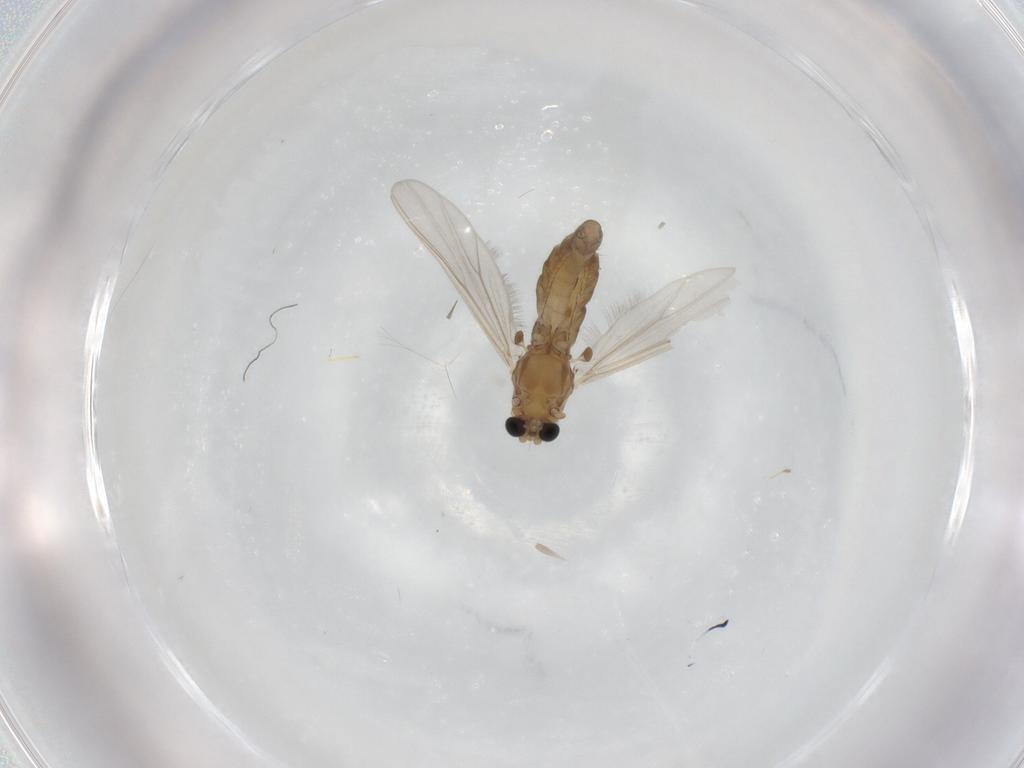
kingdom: Animalia
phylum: Arthropoda
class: Insecta
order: Diptera
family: Chironomidae
